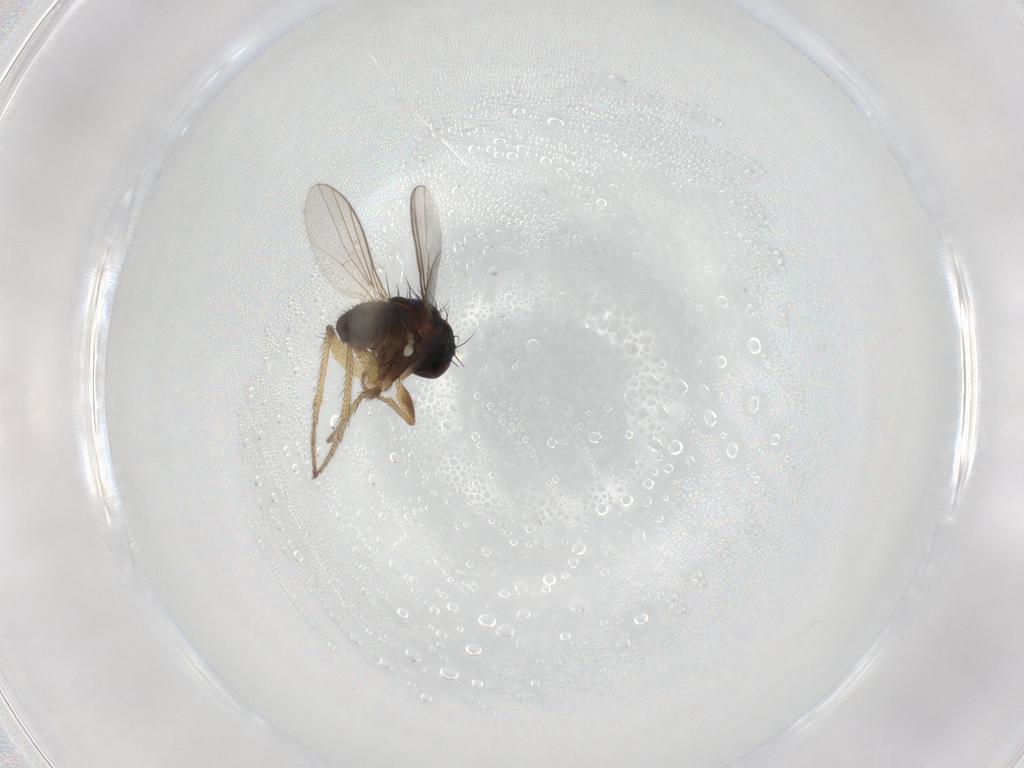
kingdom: Animalia
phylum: Arthropoda
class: Insecta
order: Diptera
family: Dolichopodidae
